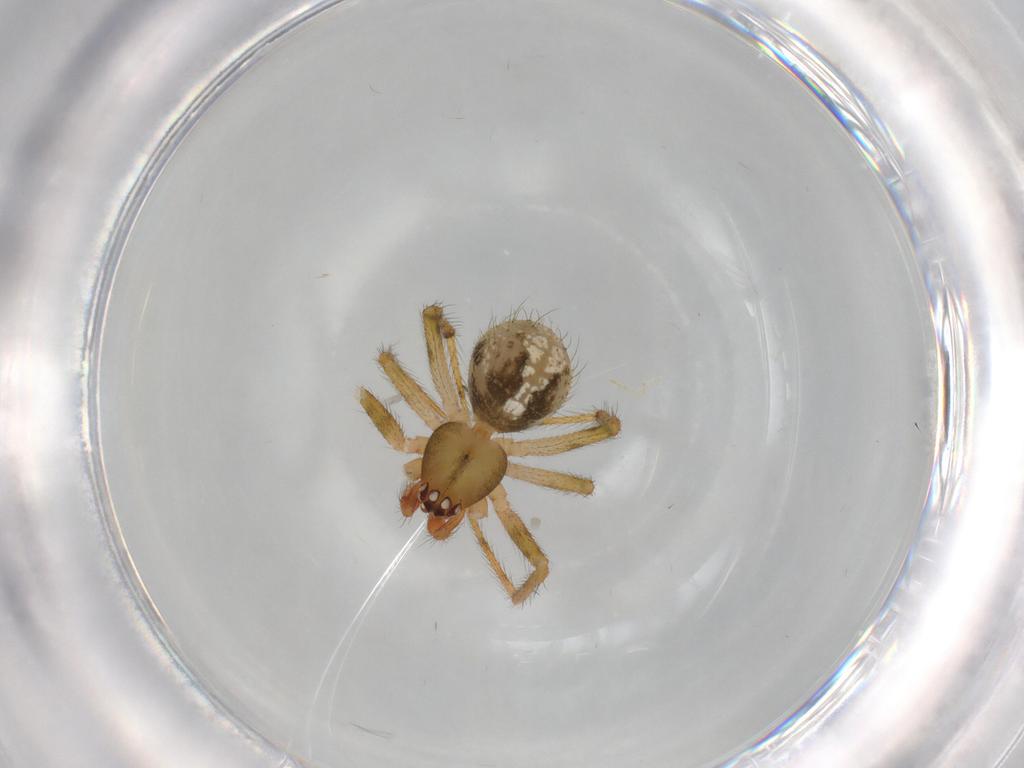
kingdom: Animalia
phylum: Arthropoda
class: Arachnida
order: Araneae
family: Theridiidae
